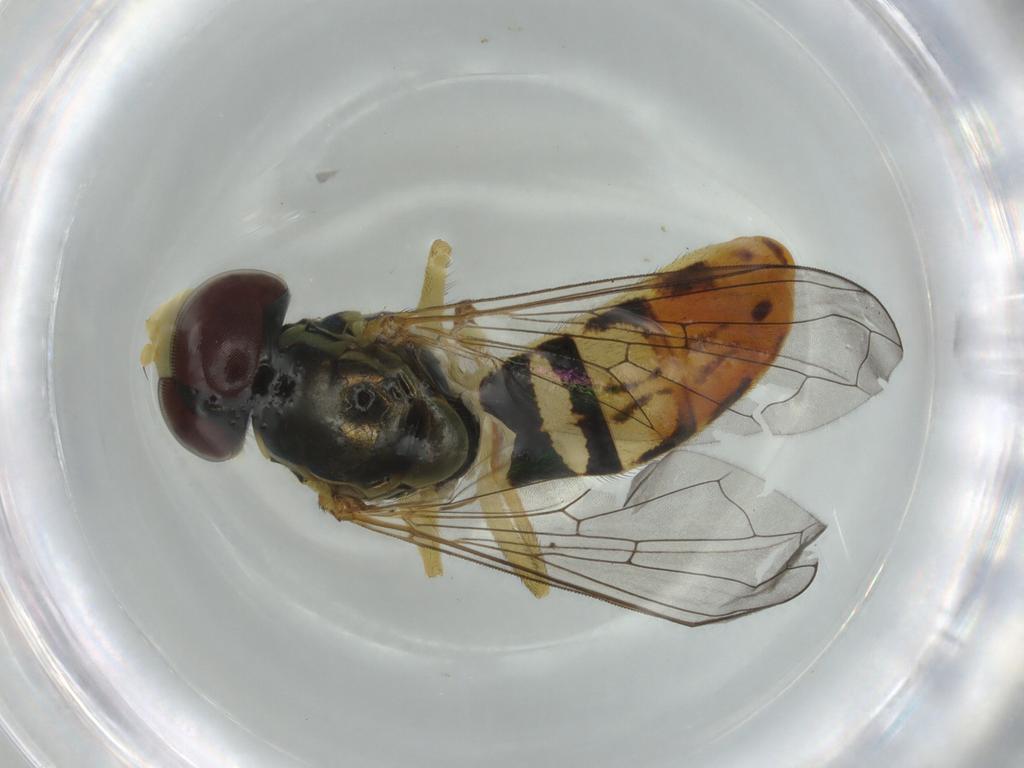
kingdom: Animalia
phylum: Arthropoda
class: Insecta
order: Diptera
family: Syrphidae
